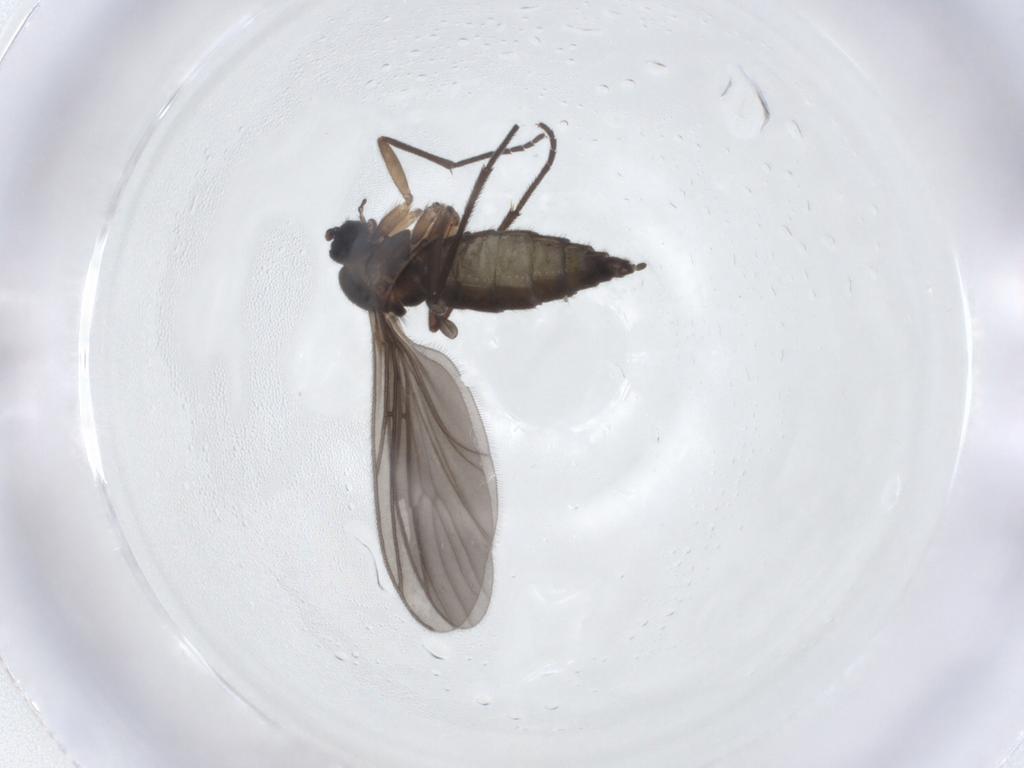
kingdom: Animalia
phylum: Arthropoda
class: Insecta
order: Diptera
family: Sciaridae
